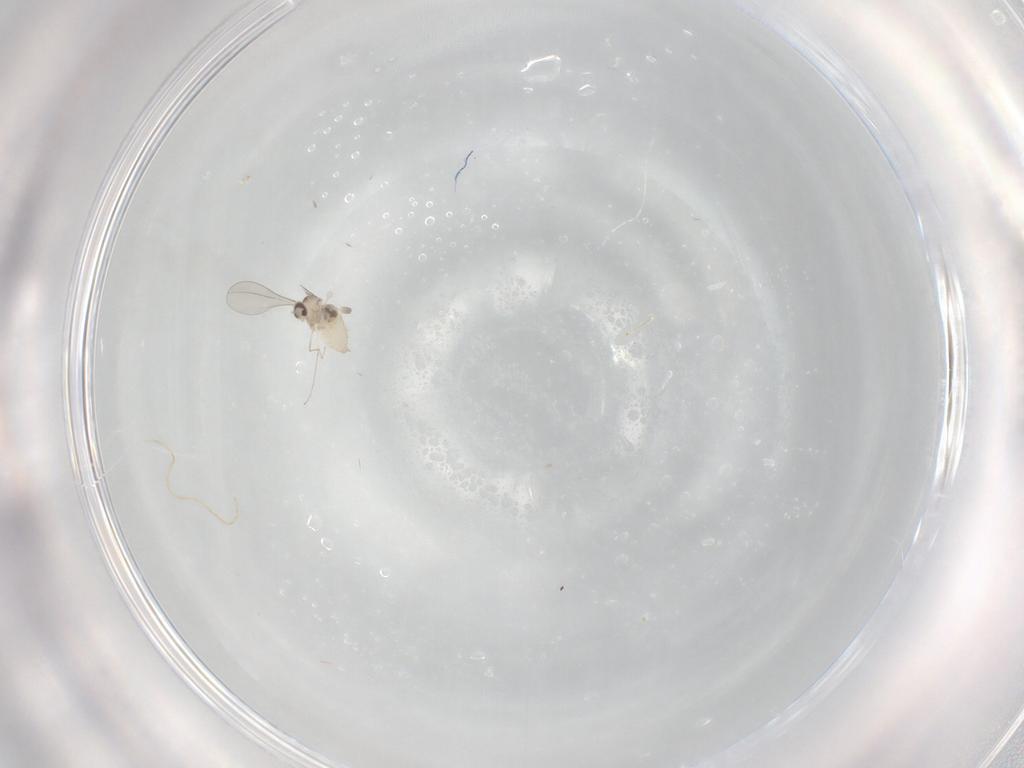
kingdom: Animalia
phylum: Arthropoda
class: Insecta
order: Diptera
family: Cecidomyiidae
